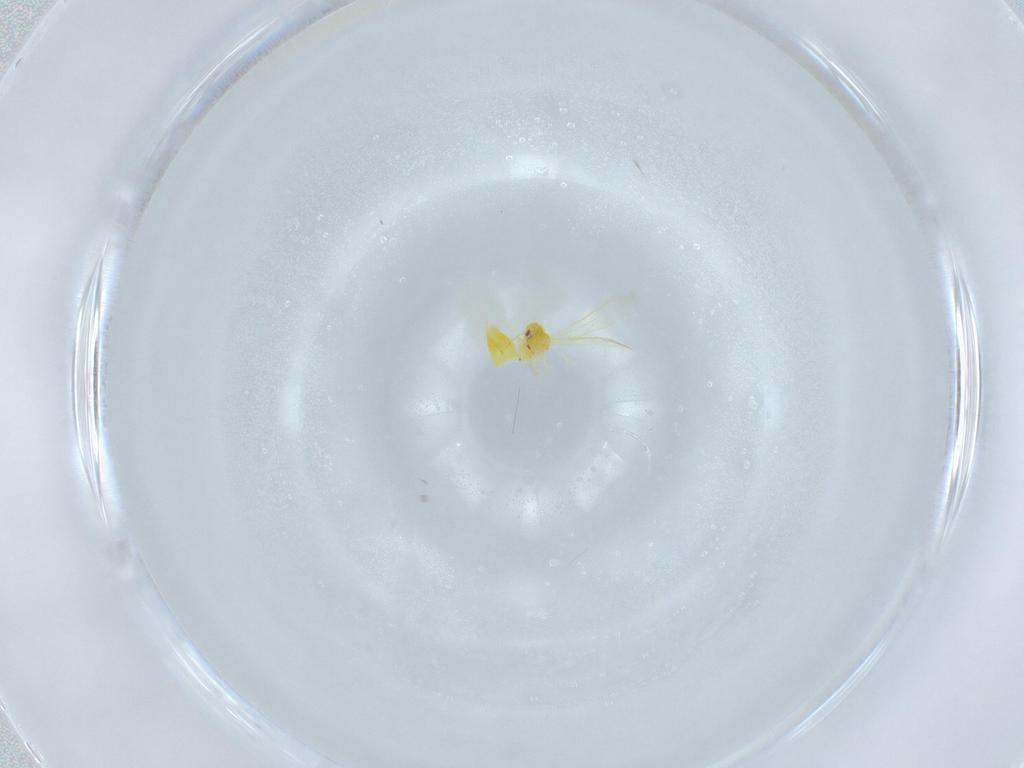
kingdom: Animalia
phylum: Arthropoda
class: Insecta
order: Hemiptera
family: Aleyrodidae
